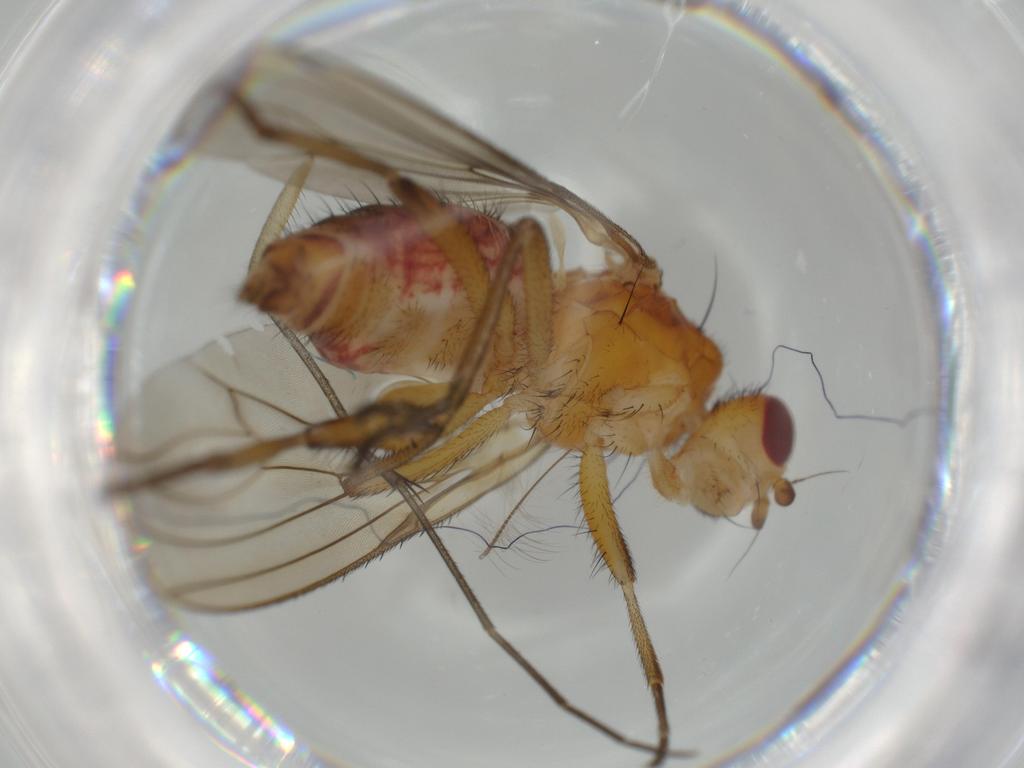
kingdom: Animalia
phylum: Arthropoda
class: Insecta
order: Diptera
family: Heleomyzidae
